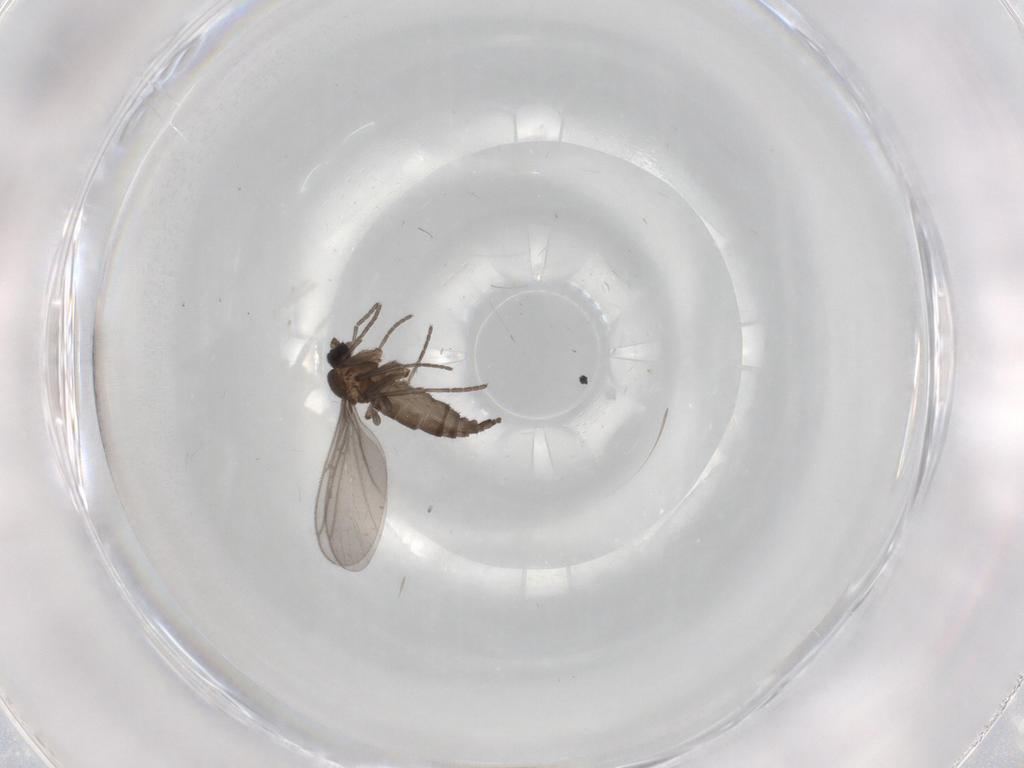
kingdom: Animalia
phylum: Arthropoda
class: Insecta
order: Diptera
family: Sciaridae
